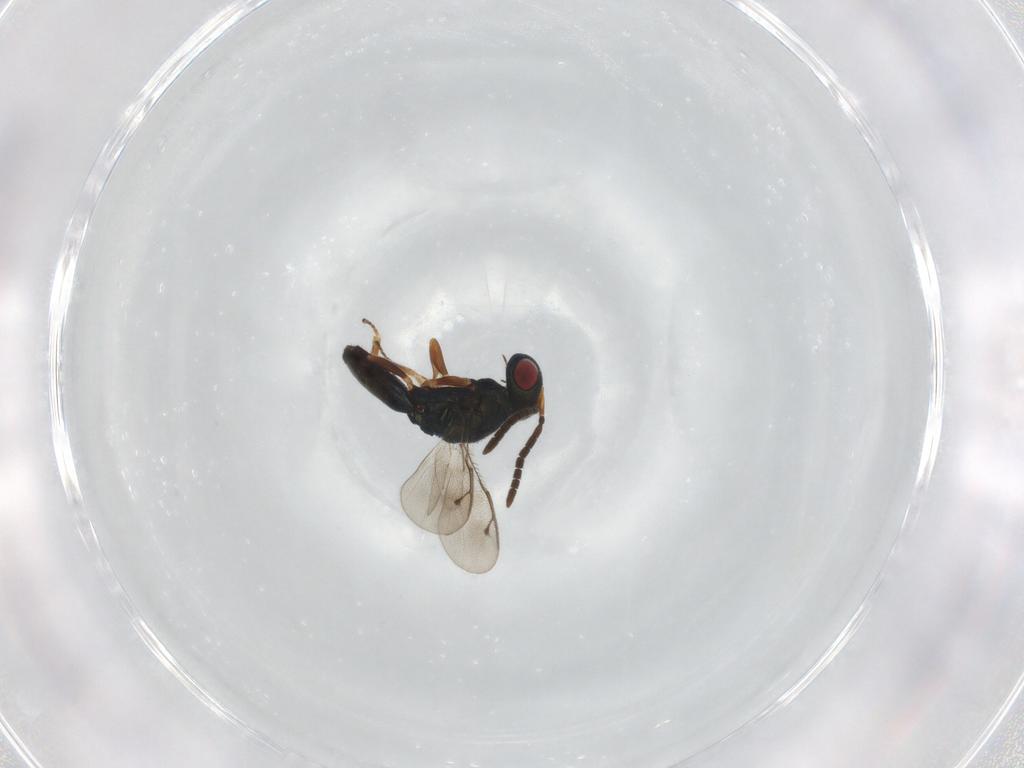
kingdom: Animalia
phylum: Arthropoda
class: Insecta
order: Hymenoptera
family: Pteromalidae
